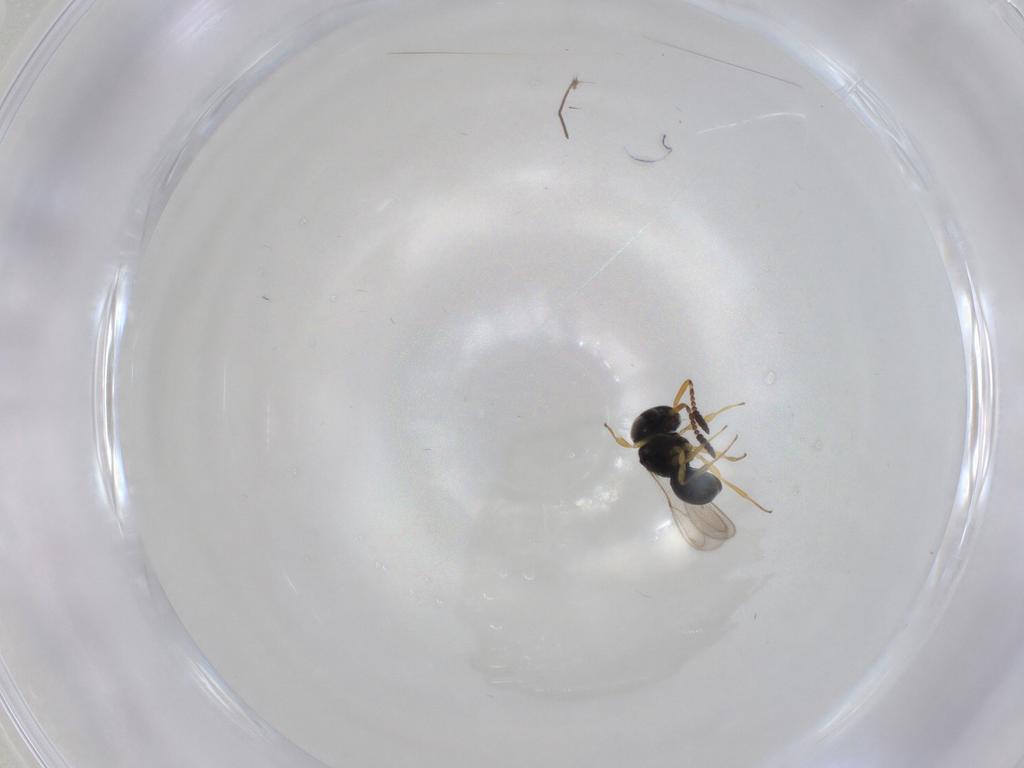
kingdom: Animalia
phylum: Arthropoda
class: Insecta
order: Hymenoptera
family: Scelionidae
